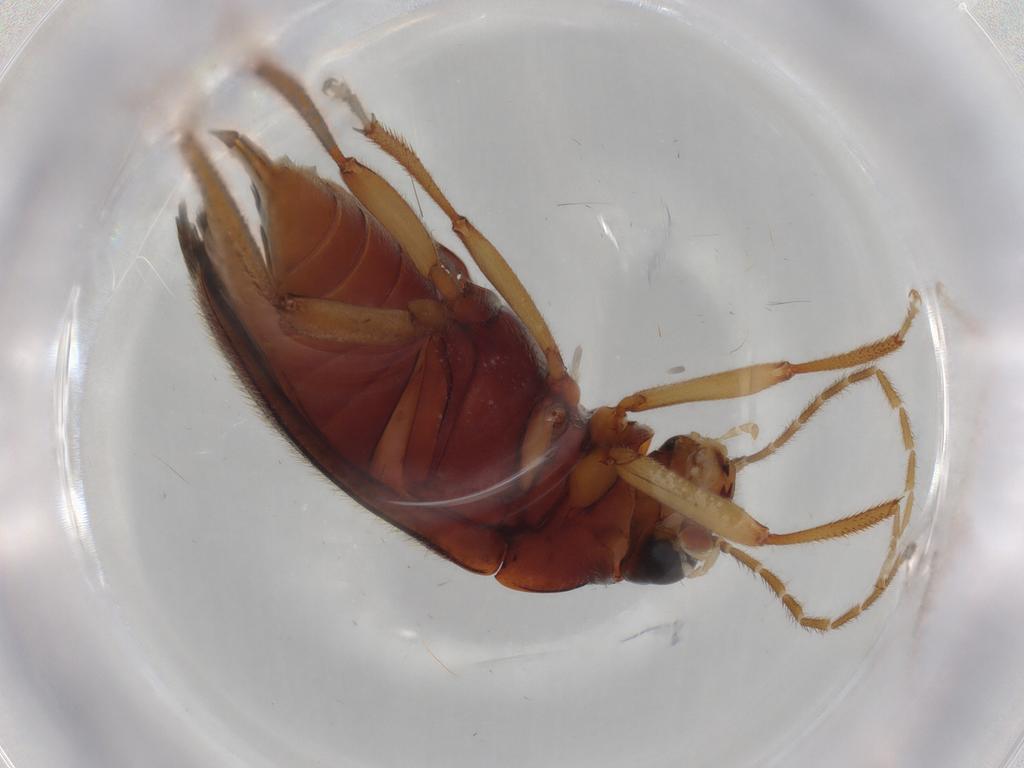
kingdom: Animalia
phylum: Arthropoda
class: Insecta
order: Coleoptera
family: Ptilodactylidae
